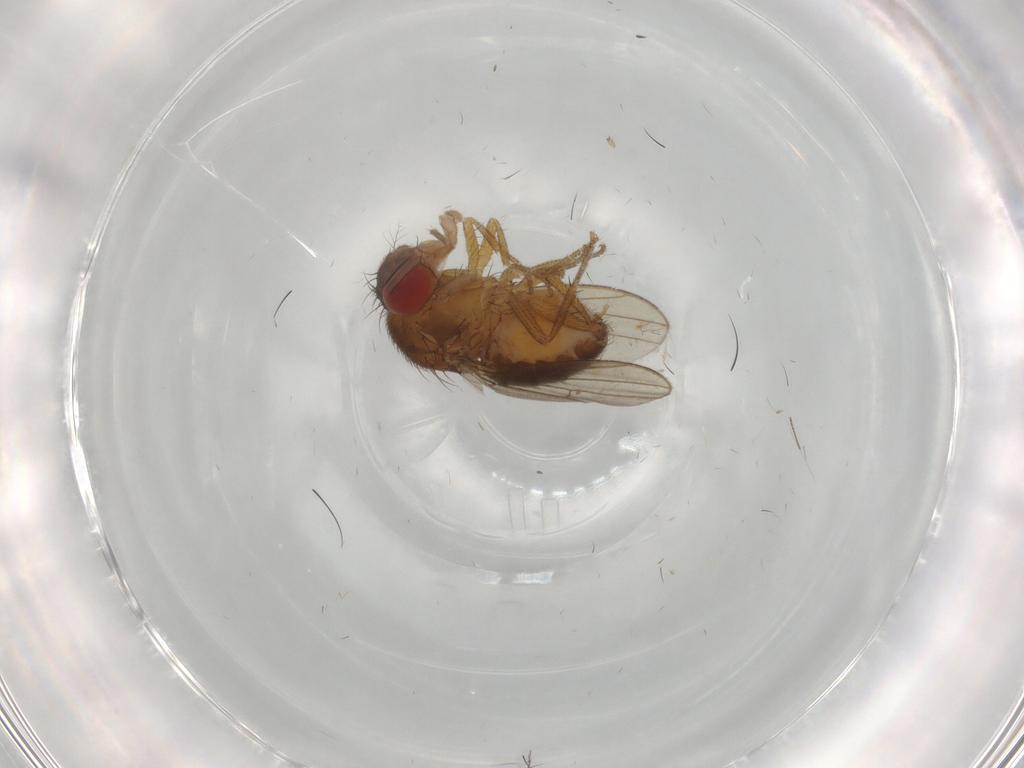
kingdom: Animalia
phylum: Arthropoda
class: Insecta
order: Diptera
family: Drosophilidae
